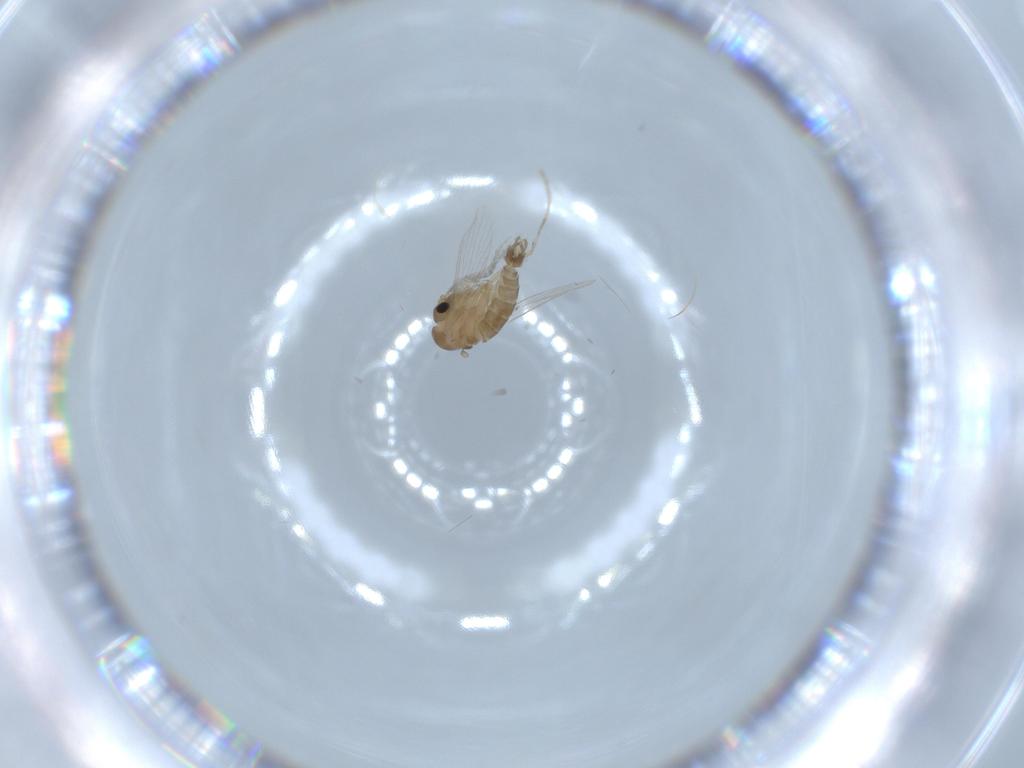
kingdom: Animalia
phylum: Arthropoda
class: Insecta
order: Diptera
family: Psychodidae
